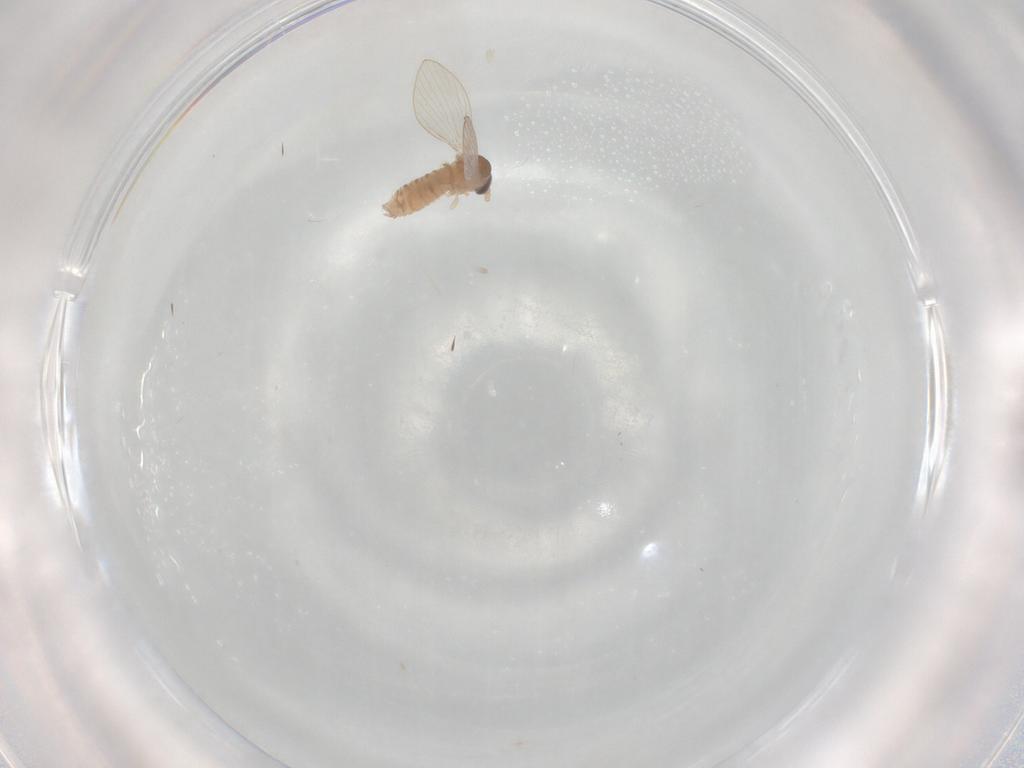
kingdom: Animalia
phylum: Arthropoda
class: Insecta
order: Diptera
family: Psychodidae
